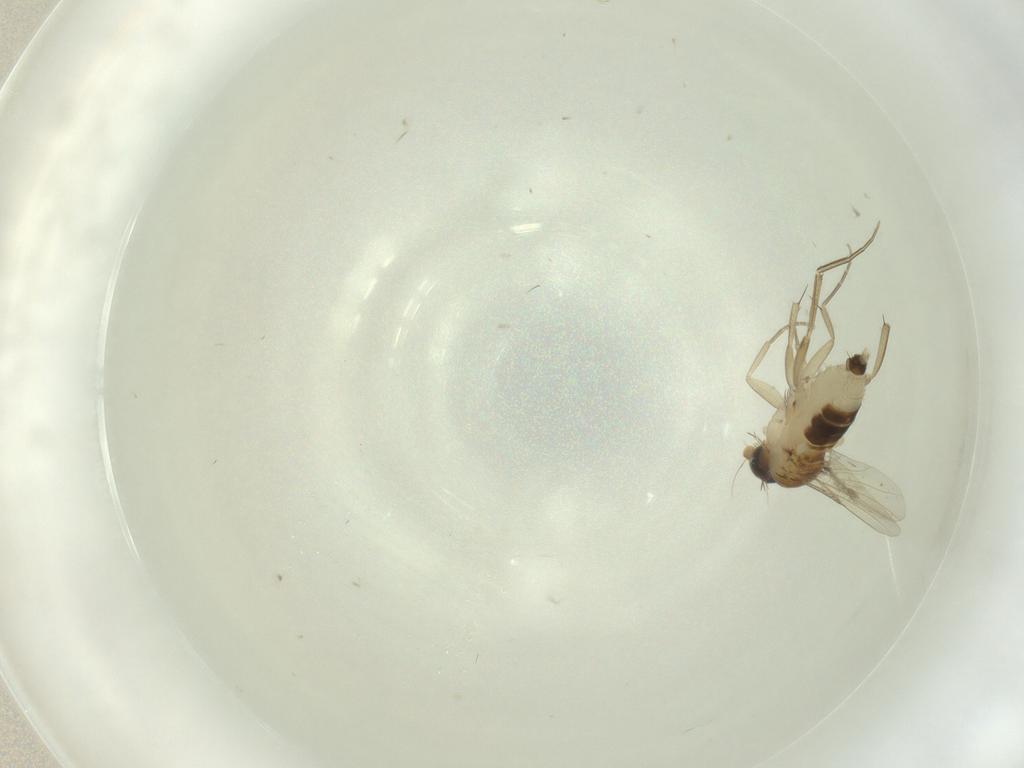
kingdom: Animalia
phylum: Arthropoda
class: Insecta
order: Diptera
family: Phoridae
